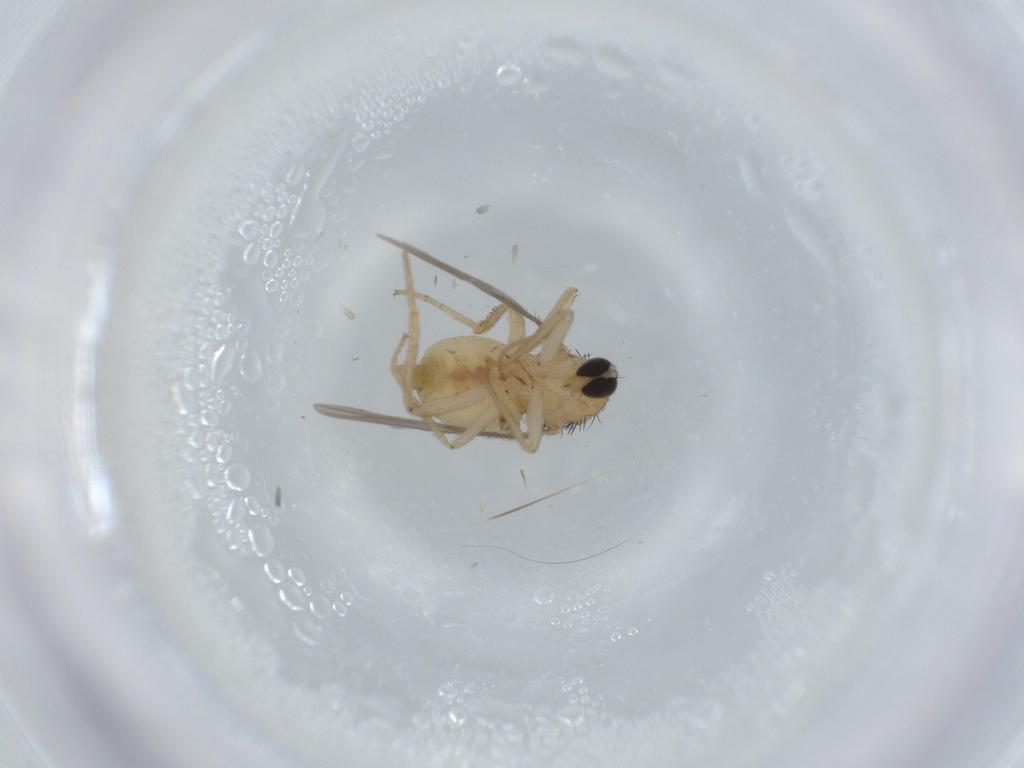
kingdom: Animalia
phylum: Arthropoda
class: Insecta
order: Diptera
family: Hybotidae
